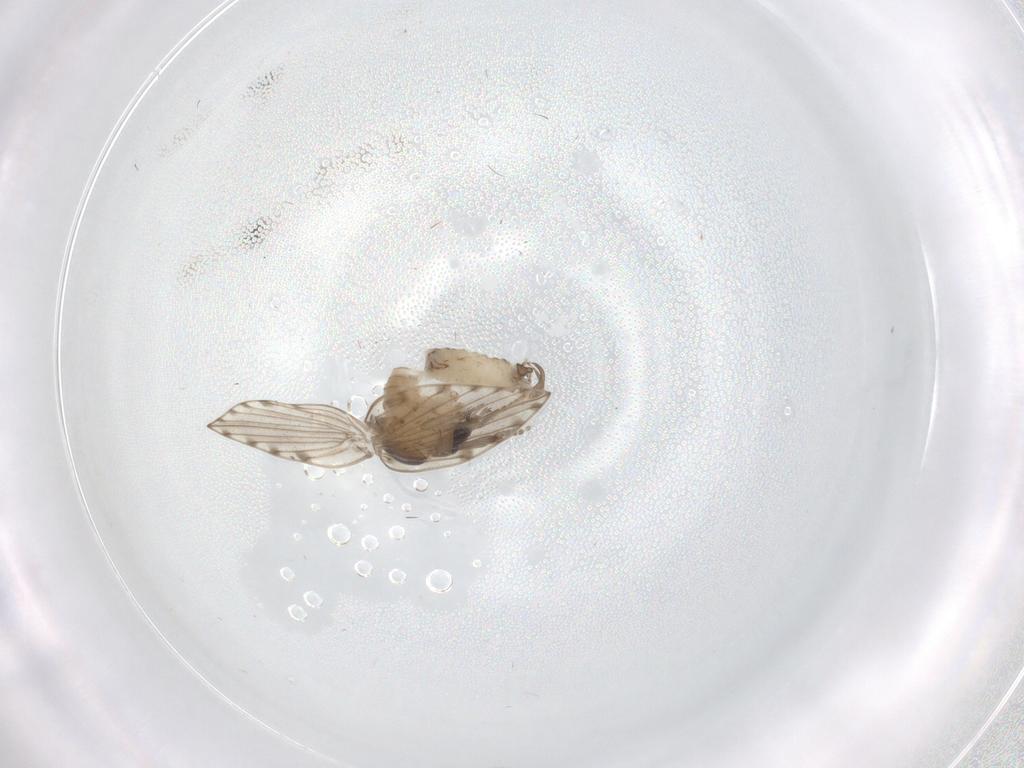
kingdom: Animalia
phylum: Arthropoda
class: Insecta
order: Diptera
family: Psychodidae
